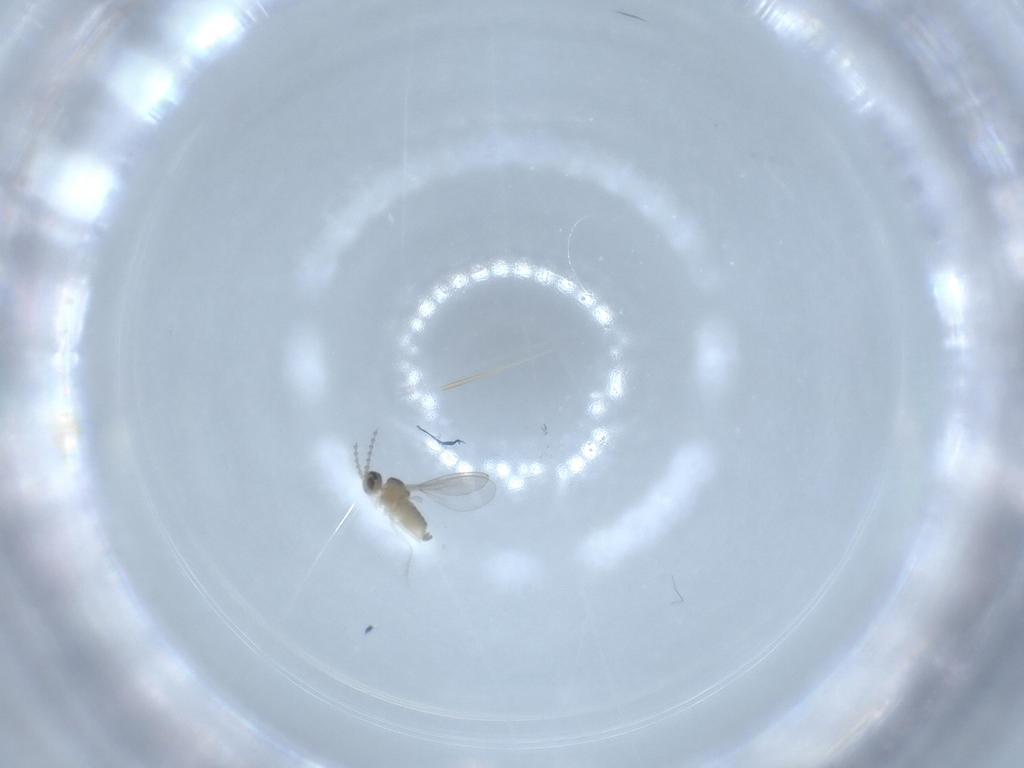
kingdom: Animalia
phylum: Arthropoda
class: Insecta
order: Diptera
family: Cecidomyiidae
